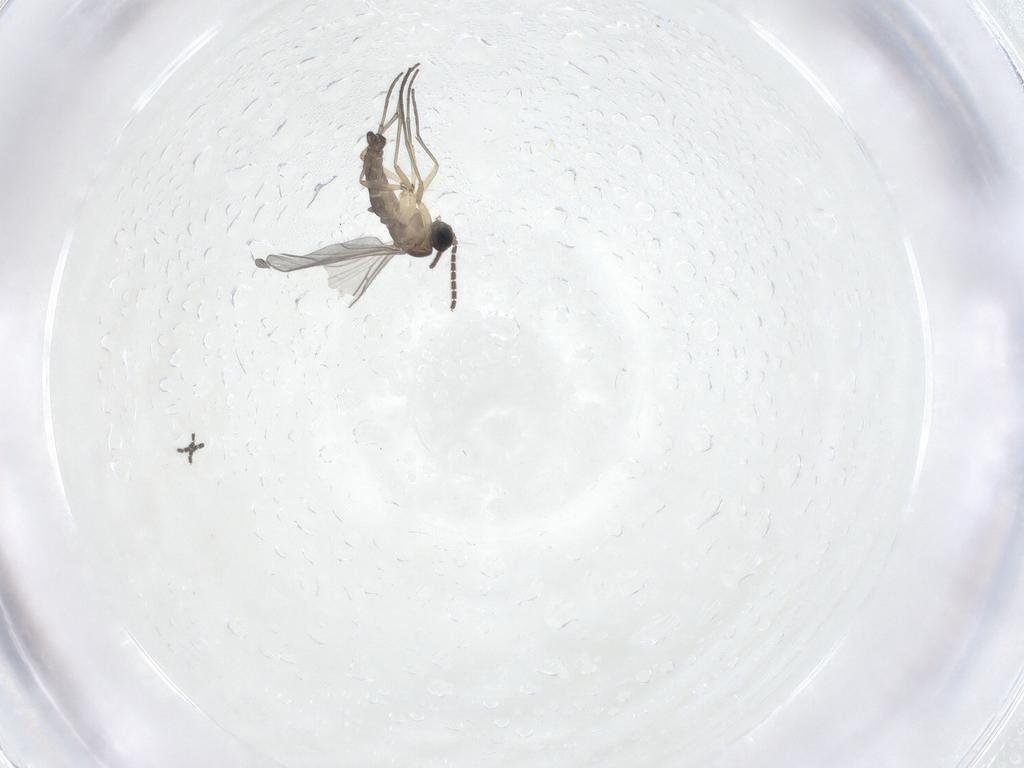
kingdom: Animalia
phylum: Arthropoda
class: Insecta
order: Diptera
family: Sciaridae
